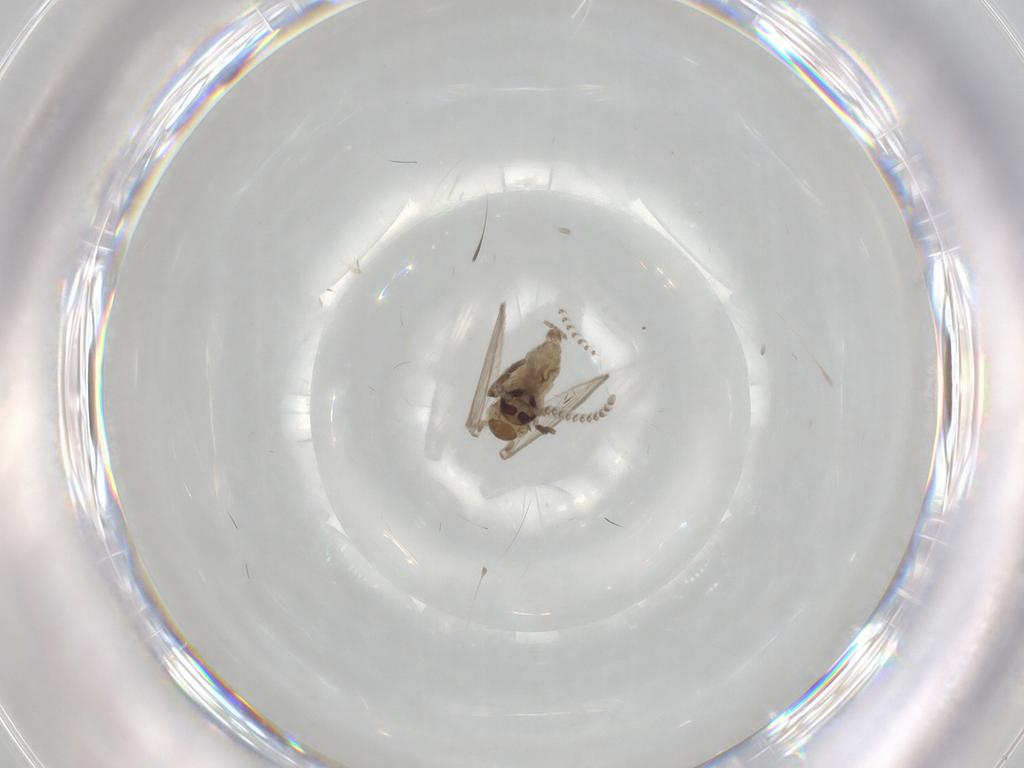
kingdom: Animalia
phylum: Arthropoda
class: Insecta
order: Diptera
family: Psychodidae
